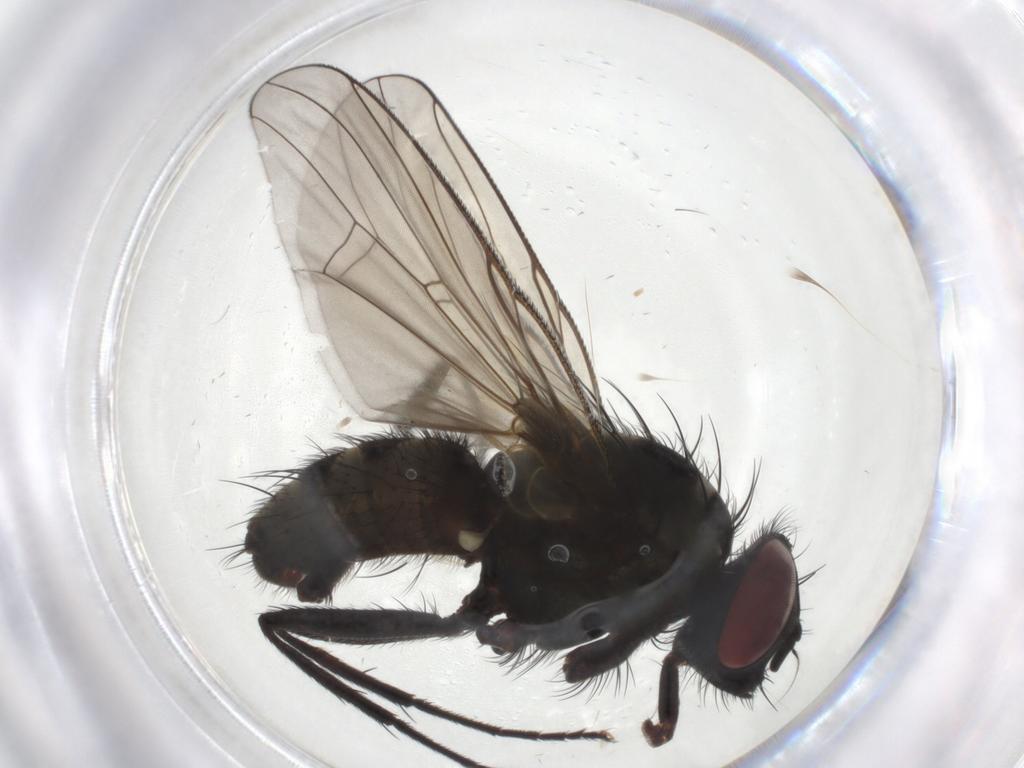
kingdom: Animalia
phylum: Arthropoda
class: Insecta
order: Diptera
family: Muscidae
